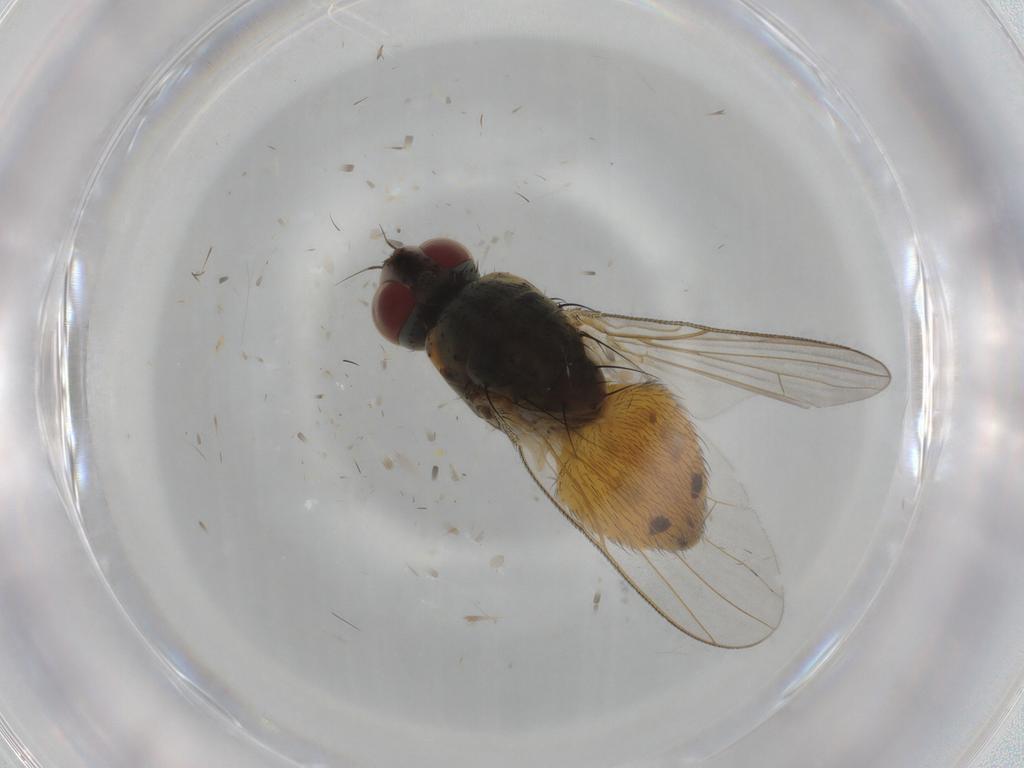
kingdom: Animalia
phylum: Arthropoda
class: Insecta
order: Diptera
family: Muscidae
